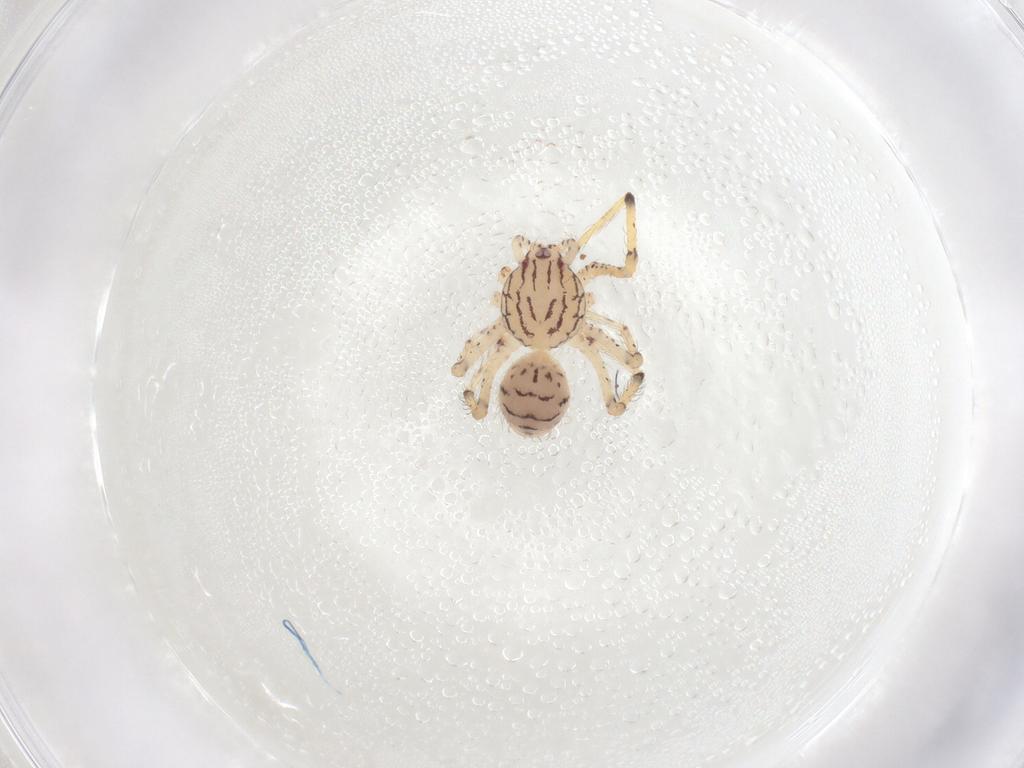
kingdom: Animalia
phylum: Arthropoda
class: Insecta
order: Hemiptera
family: Issidae
